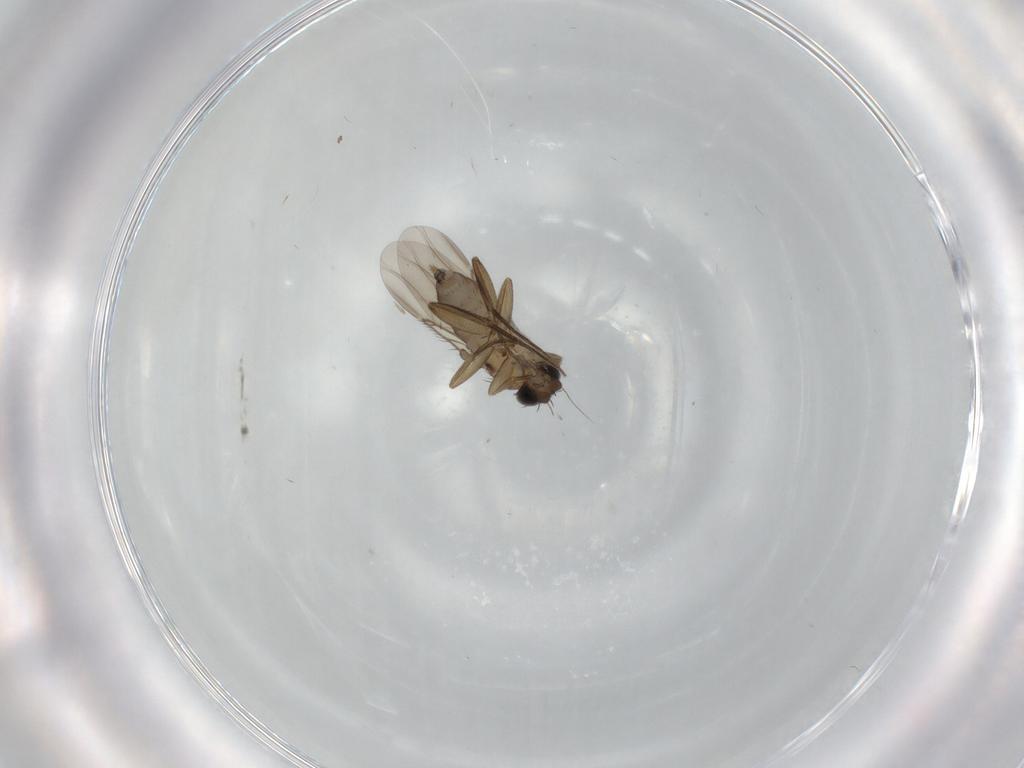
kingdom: Animalia
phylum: Arthropoda
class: Insecta
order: Diptera
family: Phoridae
